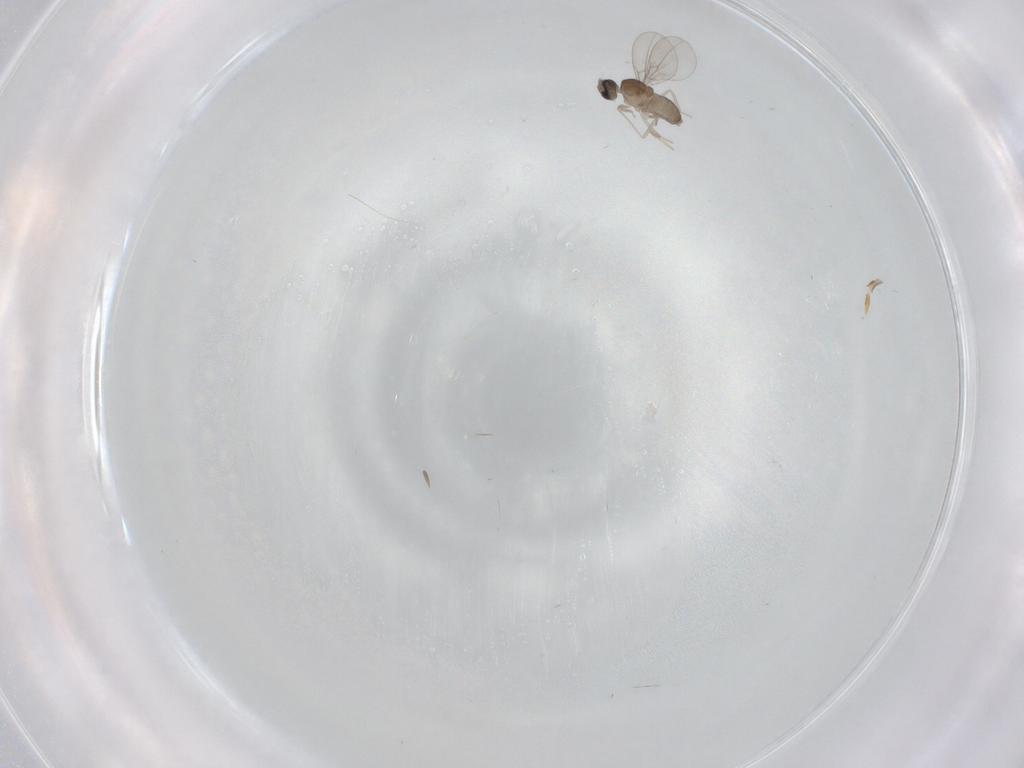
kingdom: Animalia
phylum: Arthropoda
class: Insecta
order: Diptera
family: Cecidomyiidae
